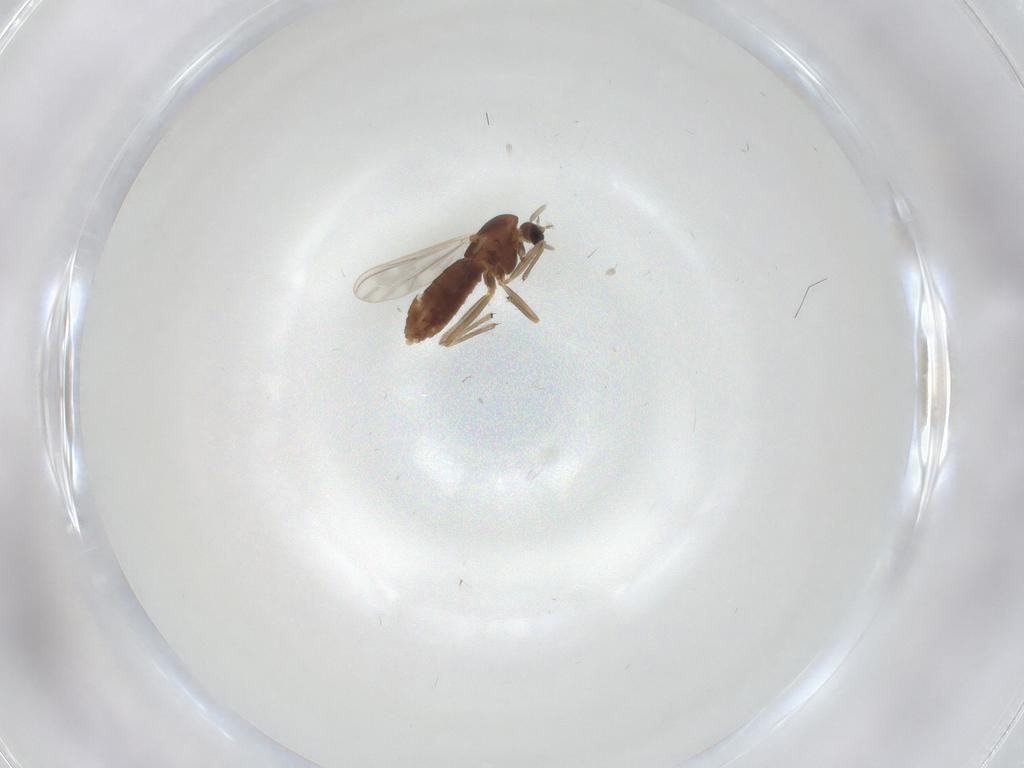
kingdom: Animalia
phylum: Arthropoda
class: Insecta
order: Diptera
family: Chironomidae
